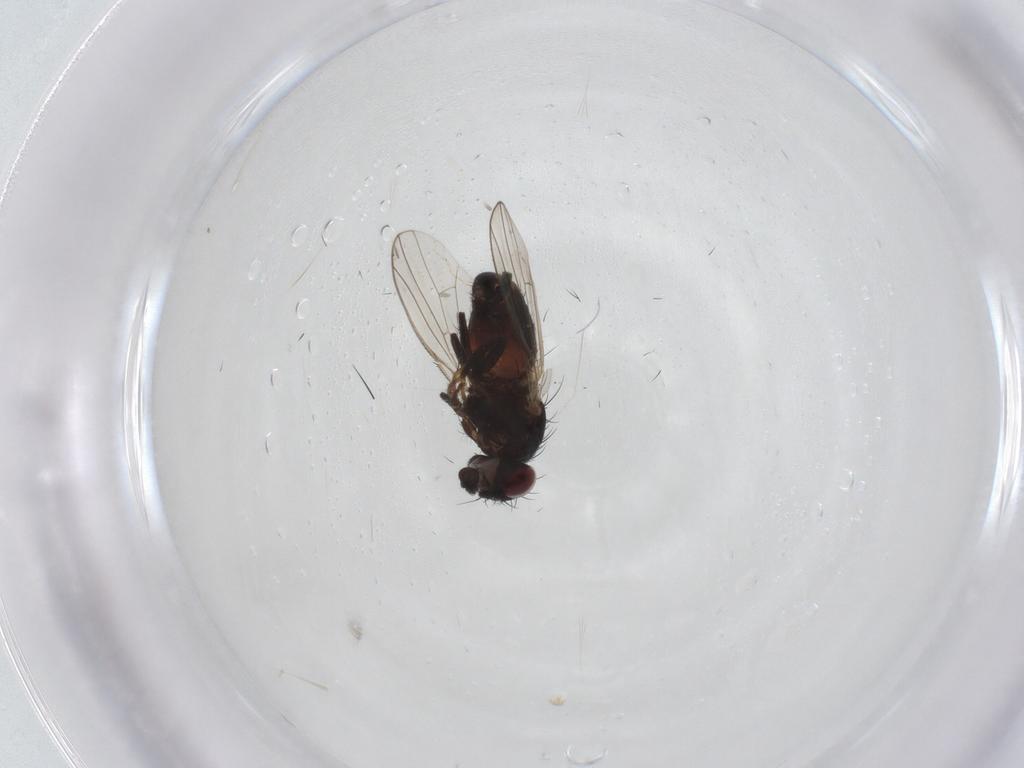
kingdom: Animalia
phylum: Arthropoda
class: Insecta
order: Diptera
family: Carnidae
